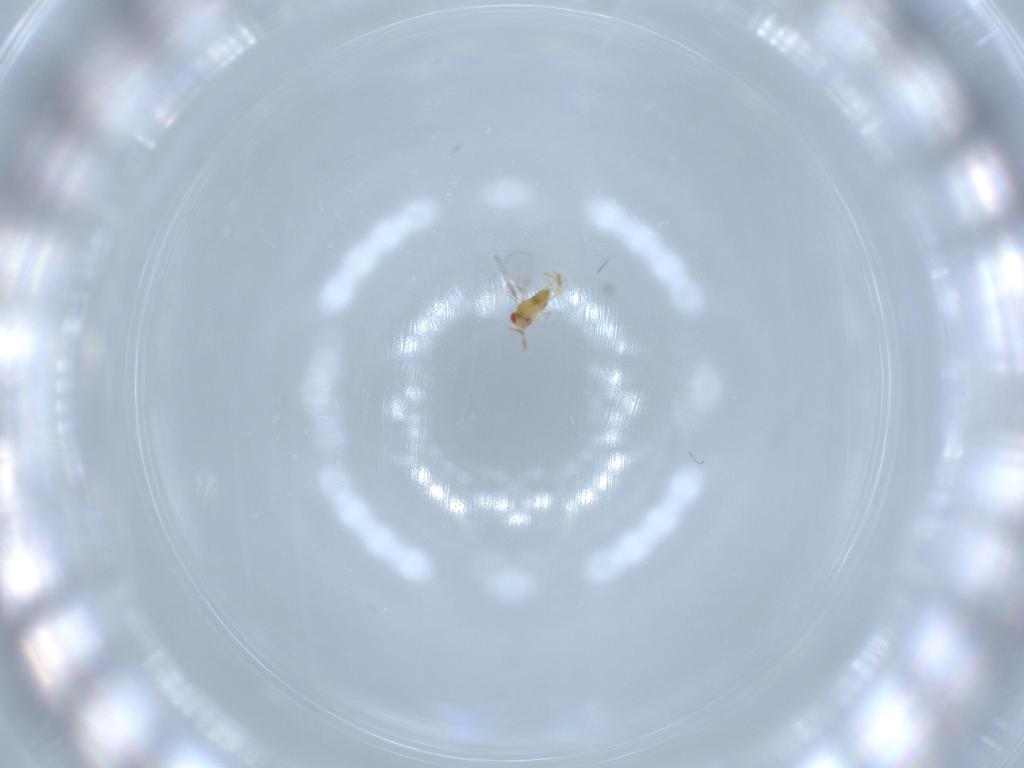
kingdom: Animalia
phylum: Arthropoda
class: Insecta
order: Hymenoptera
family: Trichogrammatidae
